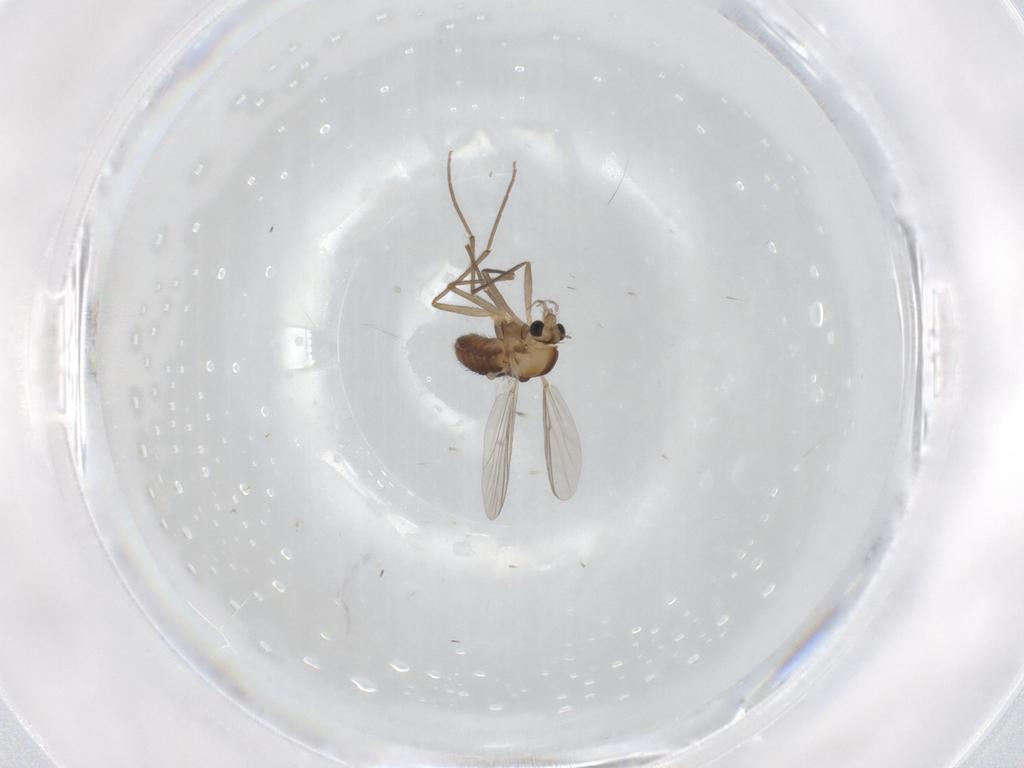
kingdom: Animalia
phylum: Arthropoda
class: Insecta
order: Diptera
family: Chironomidae
